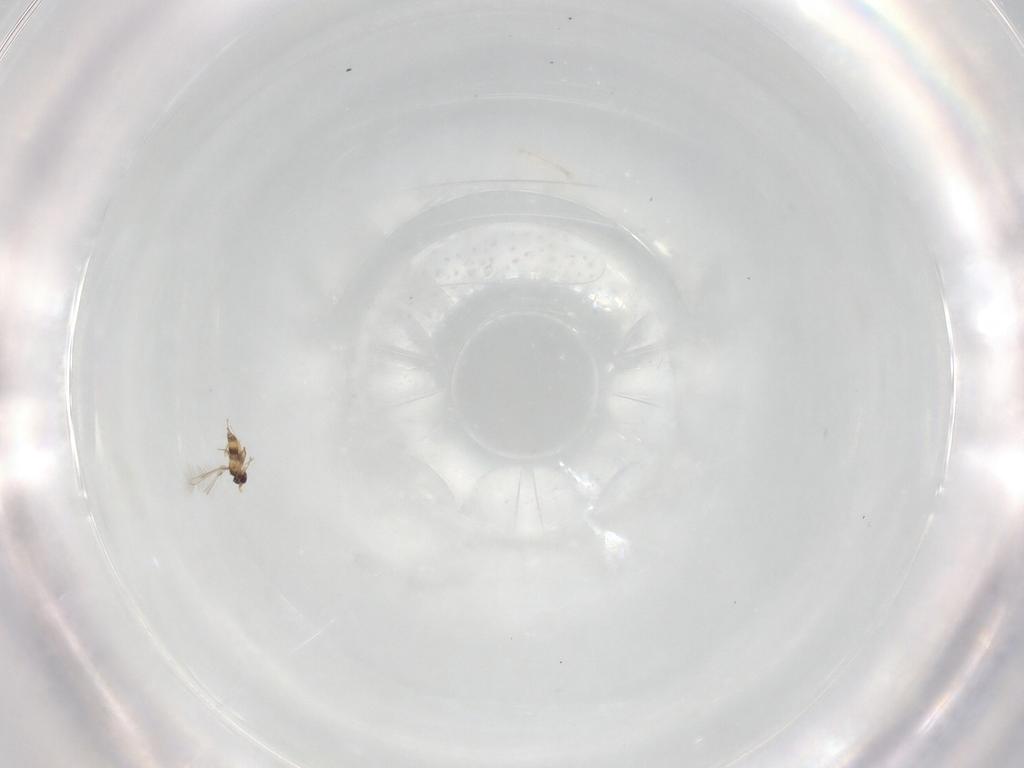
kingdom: Animalia
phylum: Arthropoda
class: Insecta
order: Hymenoptera
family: Mymaridae
